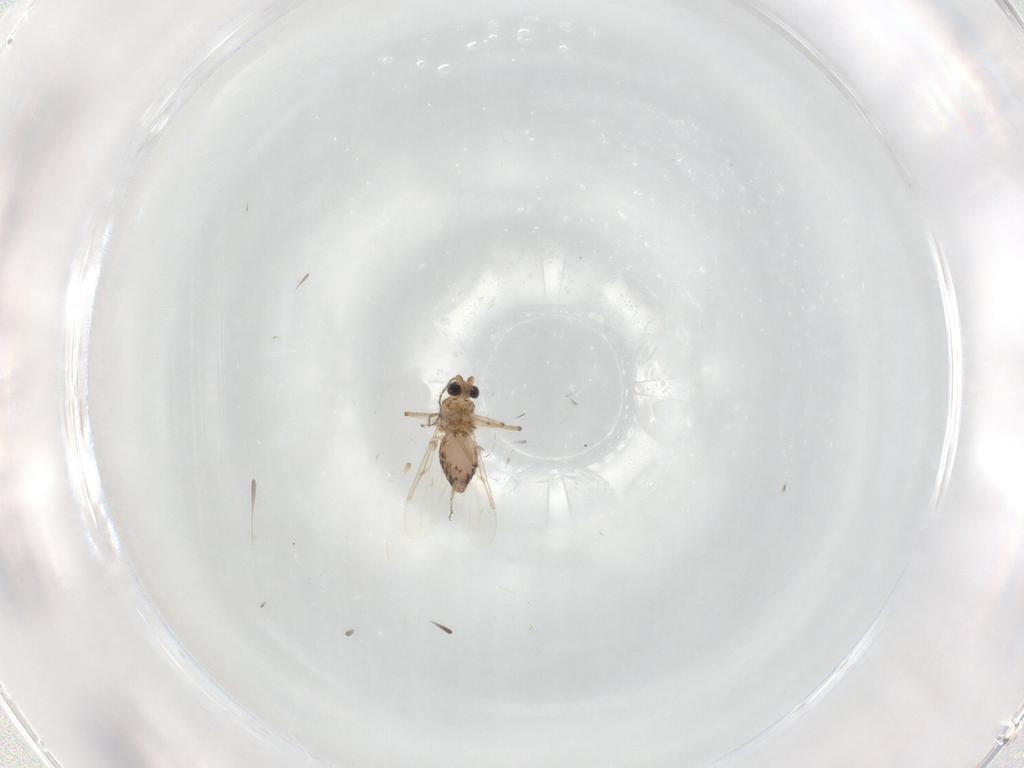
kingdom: Animalia
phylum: Arthropoda
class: Insecta
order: Diptera
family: Ceratopogonidae
